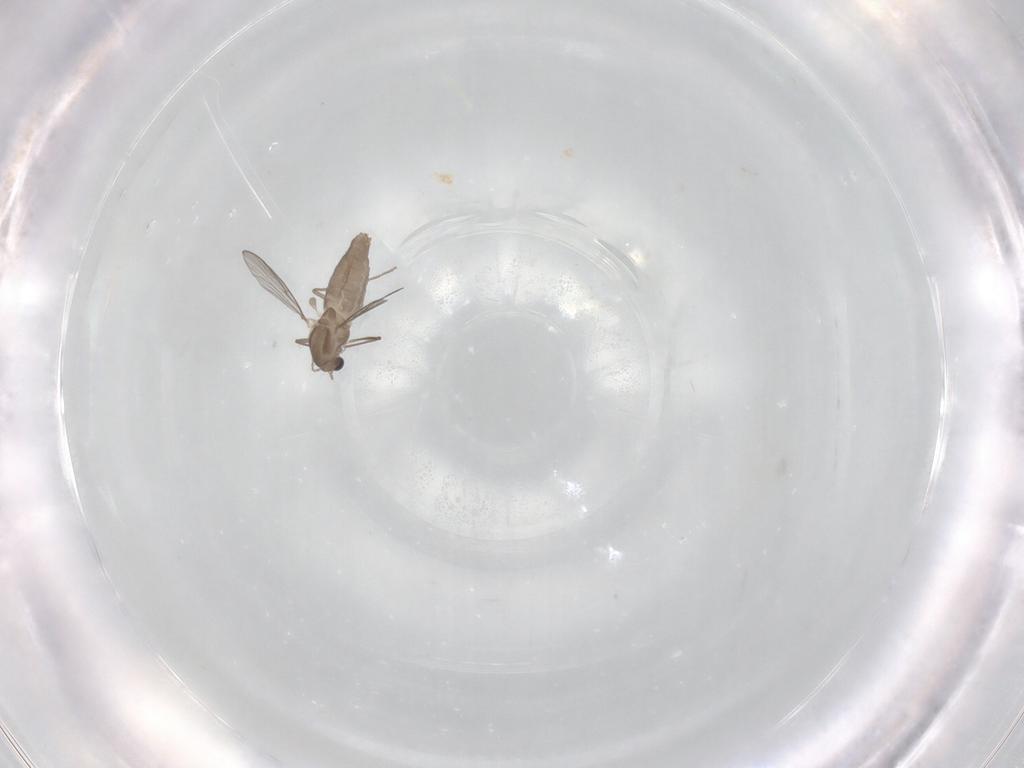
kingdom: Animalia
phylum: Arthropoda
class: Insecta
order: Diptera
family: Chironomidae
